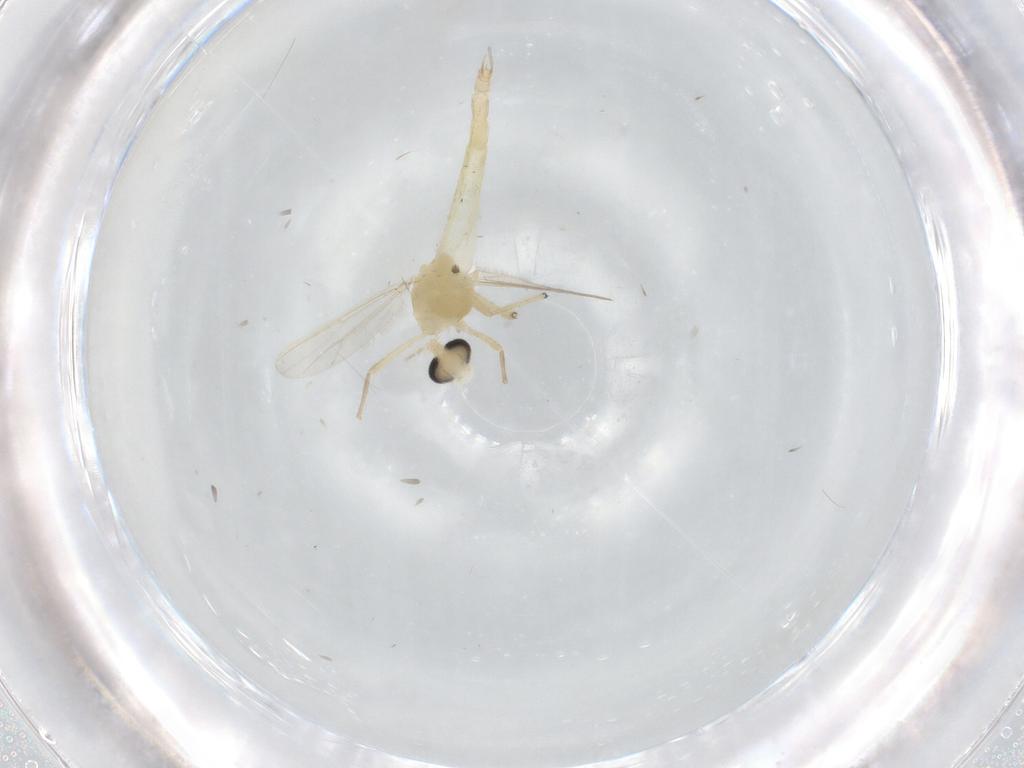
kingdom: Animalia
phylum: Arthropoda
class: Insecta
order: Diptera
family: Chironomidae
